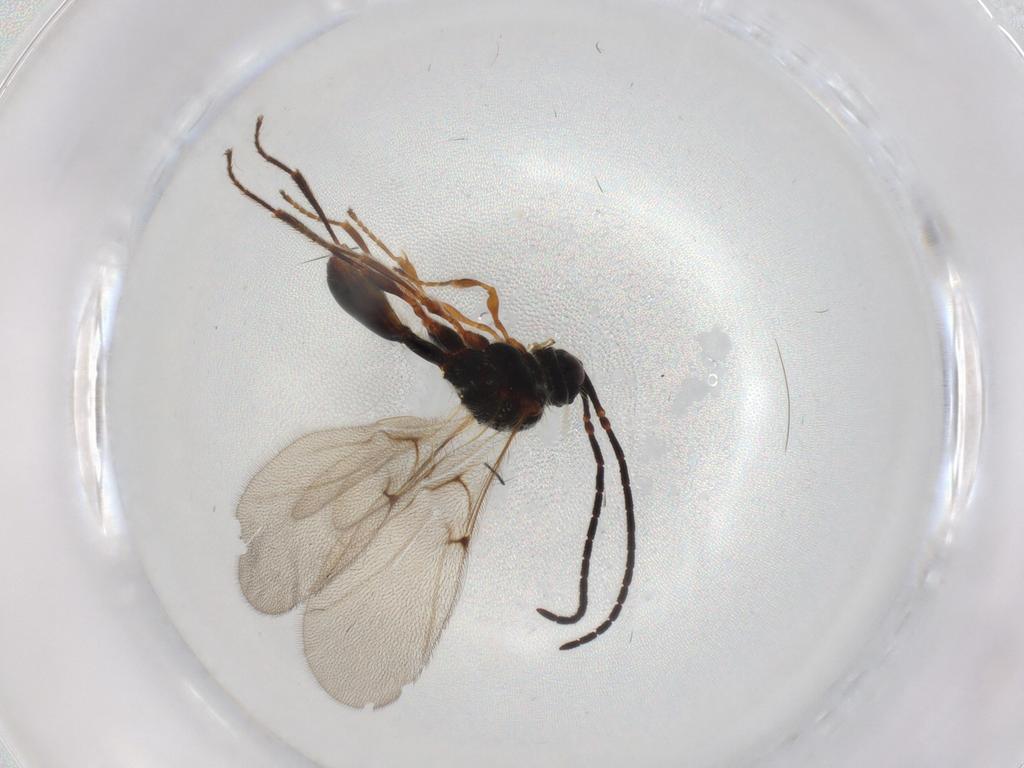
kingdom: Animalia
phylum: Arthropoda
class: Insecta
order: Hymenoptera
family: Diapriidae
